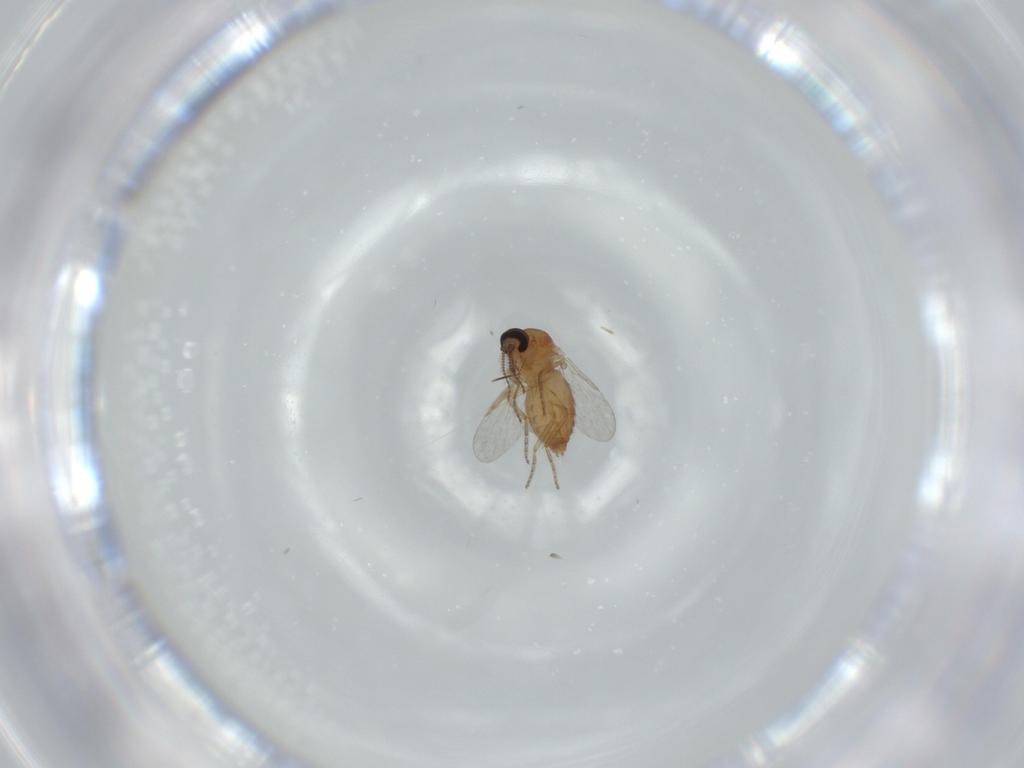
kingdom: Animalia
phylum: Arthropoda
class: Insecta
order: Diptera
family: Ceratopogonidae
